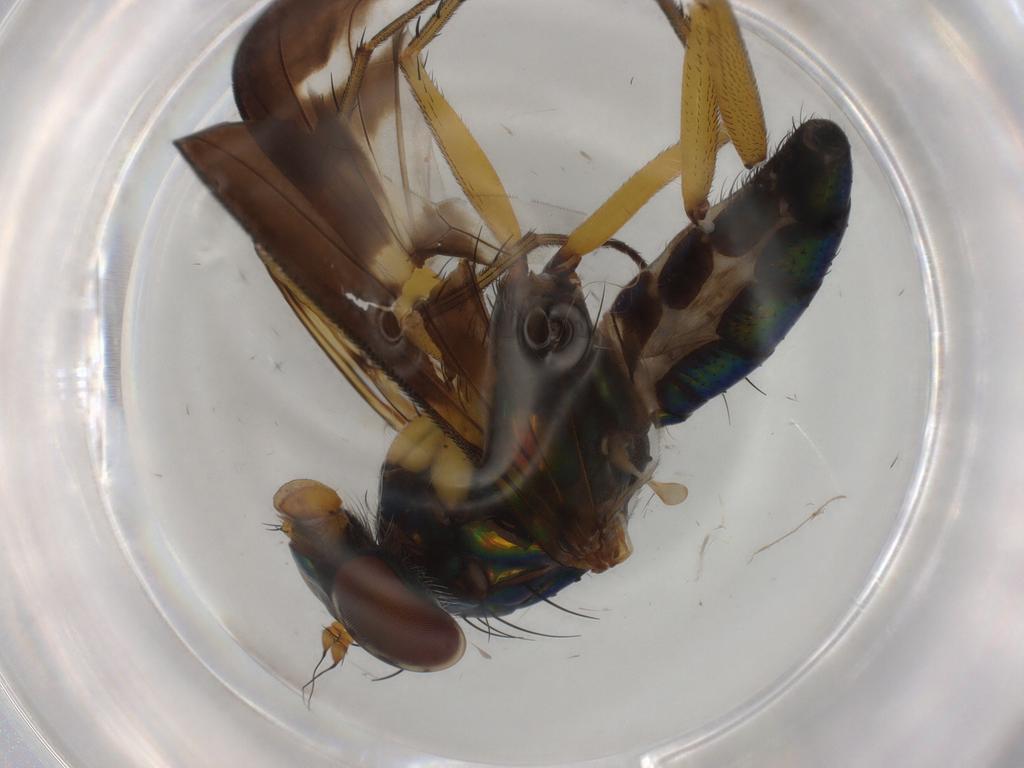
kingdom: Animalia
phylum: Arthropoda
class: Insecta
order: Diptera
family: Dolichopodidae
